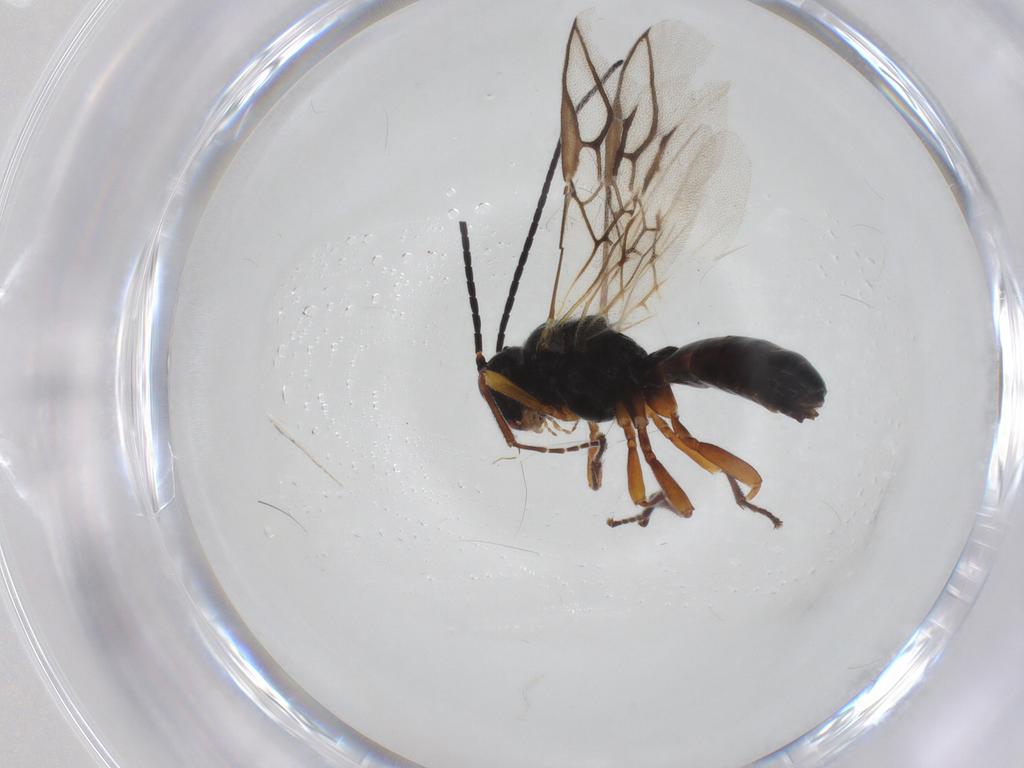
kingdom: Animalia
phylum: Arthropoda
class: Insecta
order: Hymenoptera
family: Braconidae
